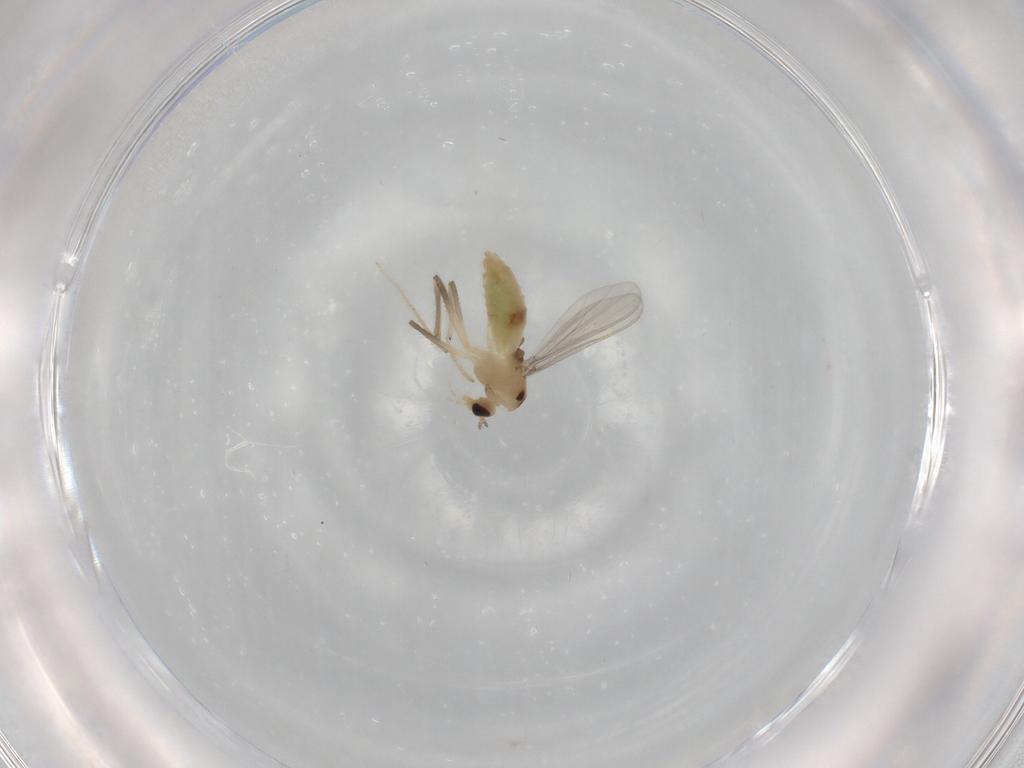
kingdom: Animalia
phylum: Arthropoda
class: Insecta
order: Diptera
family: Chironomidae
